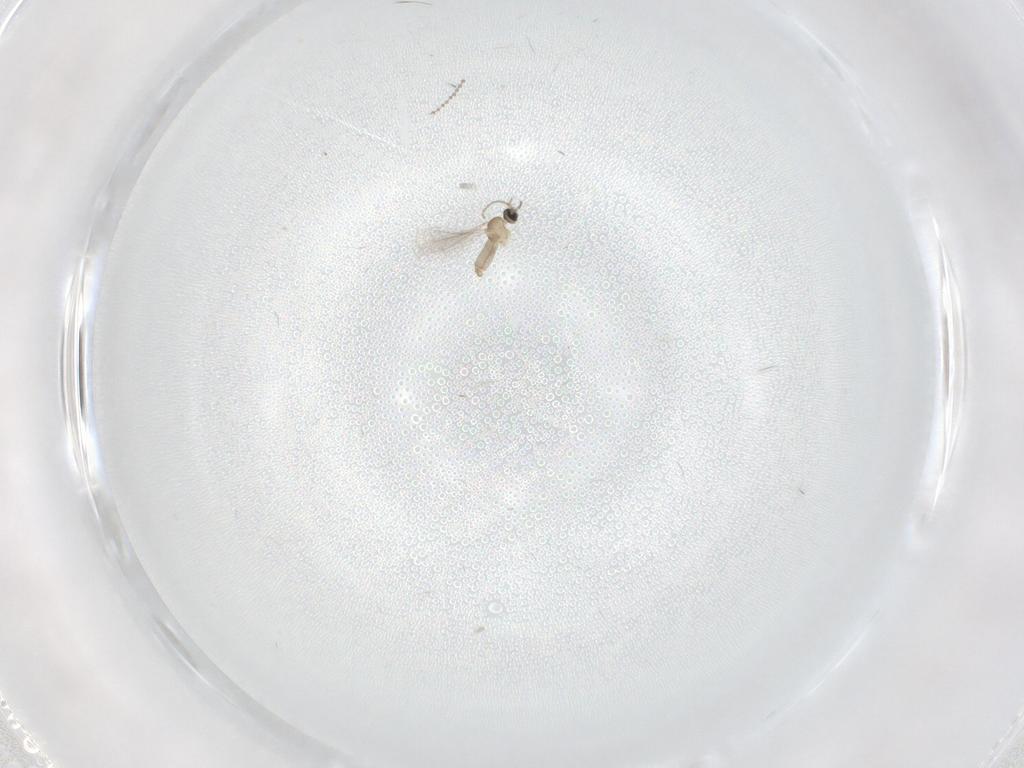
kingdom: Animalia
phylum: Arthropoda
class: Insecta
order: Diptera
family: Cecidomyiidae
